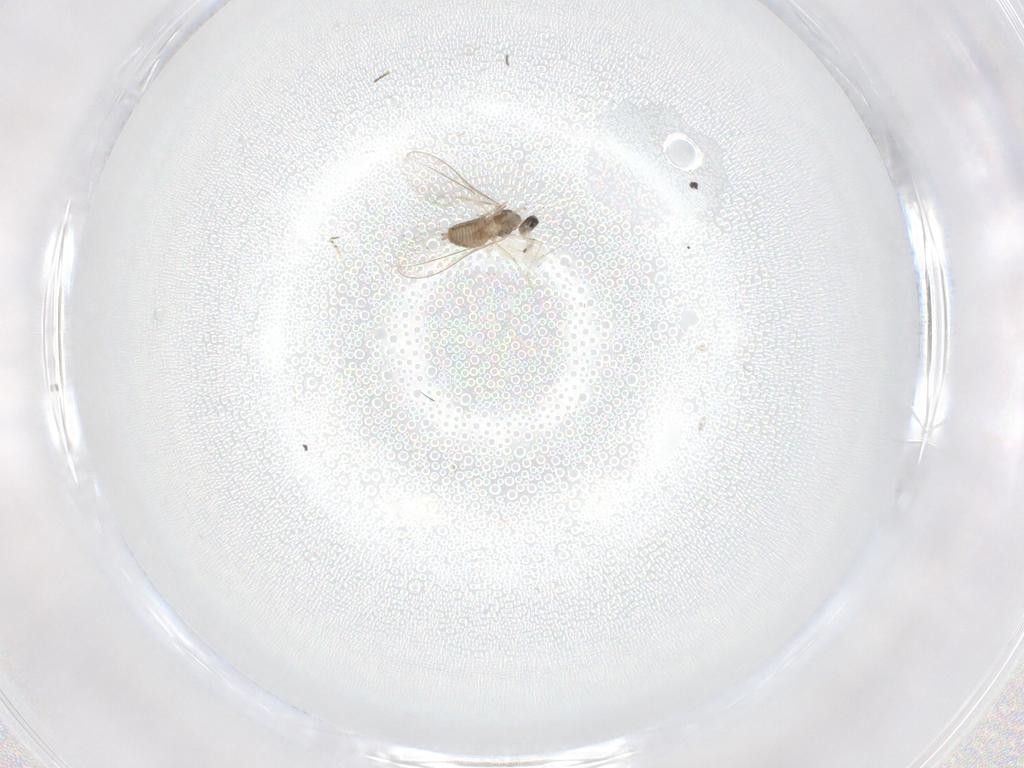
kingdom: Animalia
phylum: Arthropoda
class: Insecta
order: Diptera
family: Cecidomyiidae
